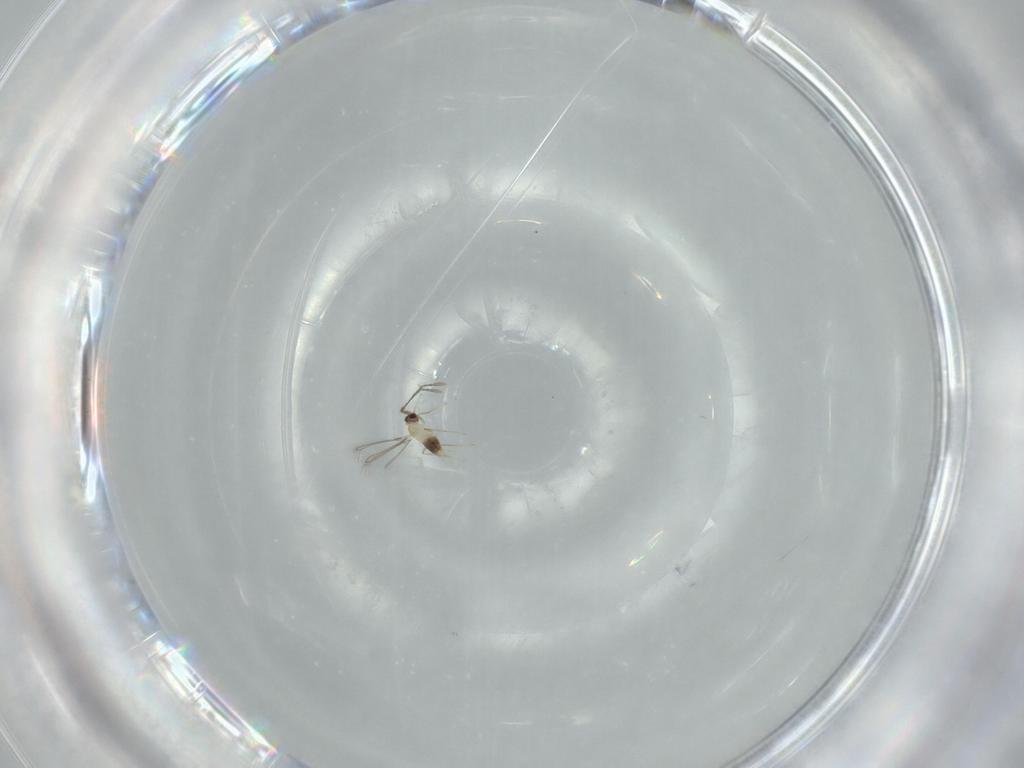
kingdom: Animalia
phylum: Arthropoda
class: Insecta
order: Hymenoptera
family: Mymaridae
